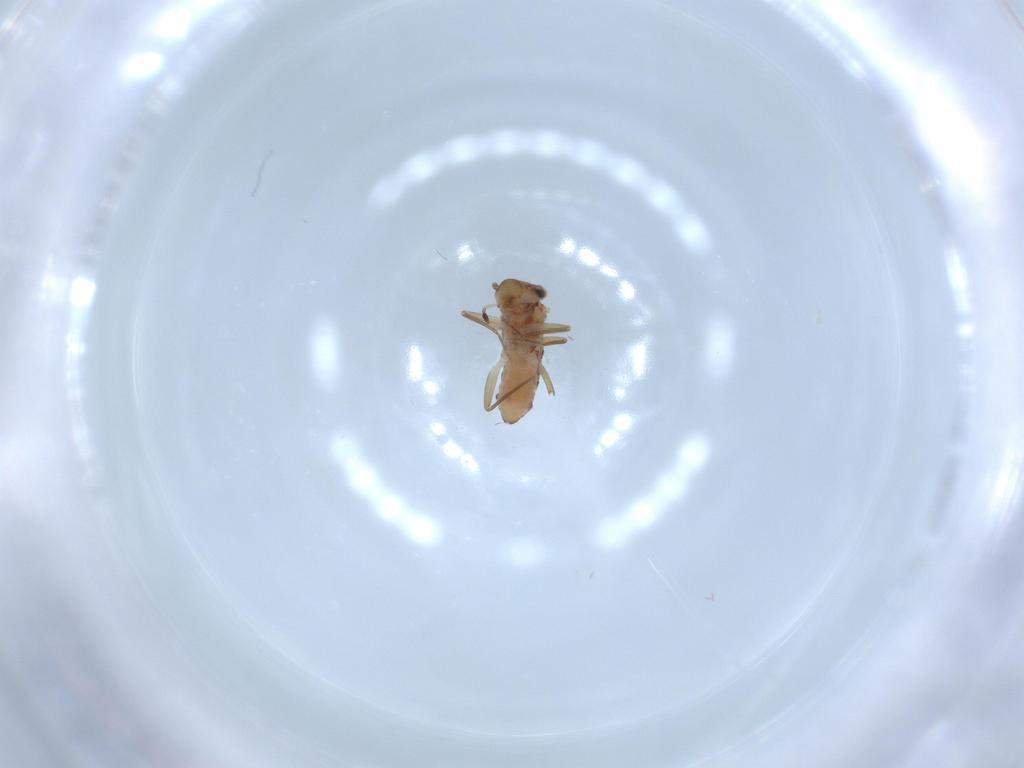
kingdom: Animalia
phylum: Arthropoda
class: Insecta
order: Psocodea
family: Lepidopsocidae
